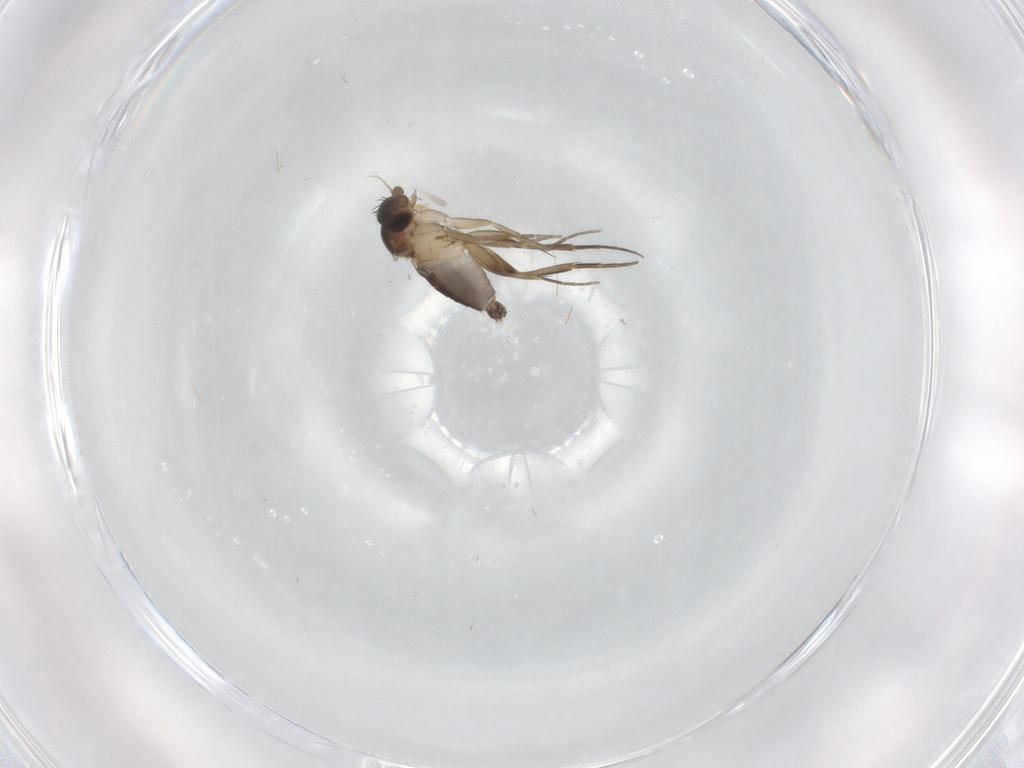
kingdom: Animalia
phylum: Arthropoda
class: Insecta
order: Diptera
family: Phoridae
